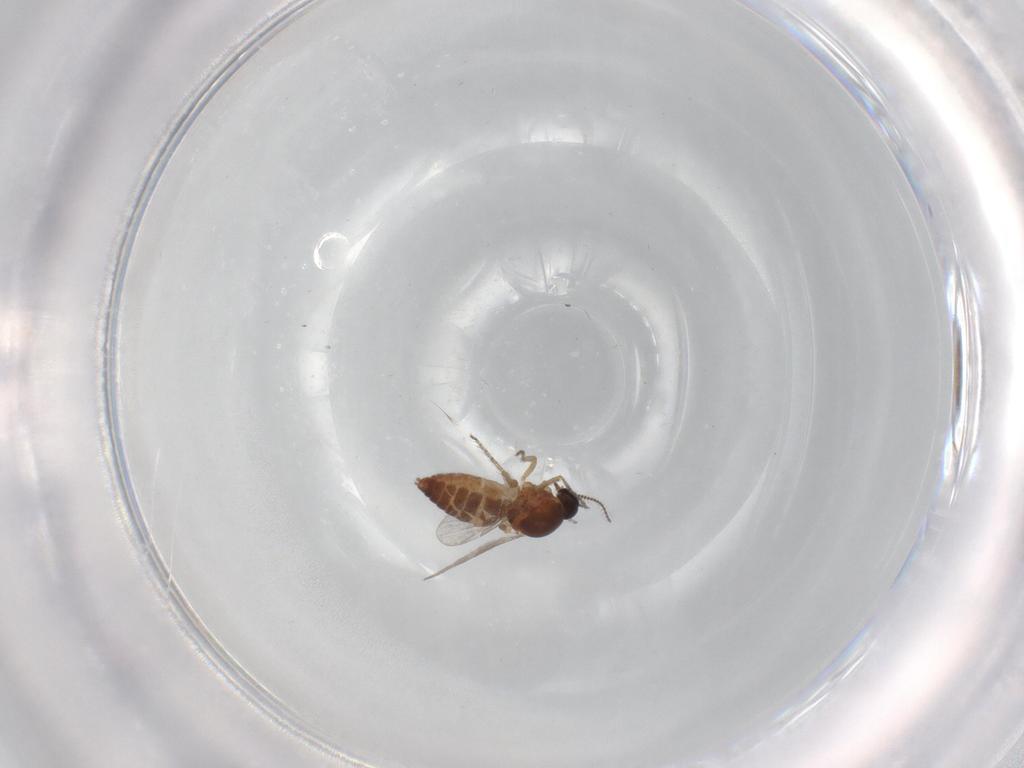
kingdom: Animalia
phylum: Arthropoda
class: Insecta
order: Diptera
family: Ceratopogonidae
